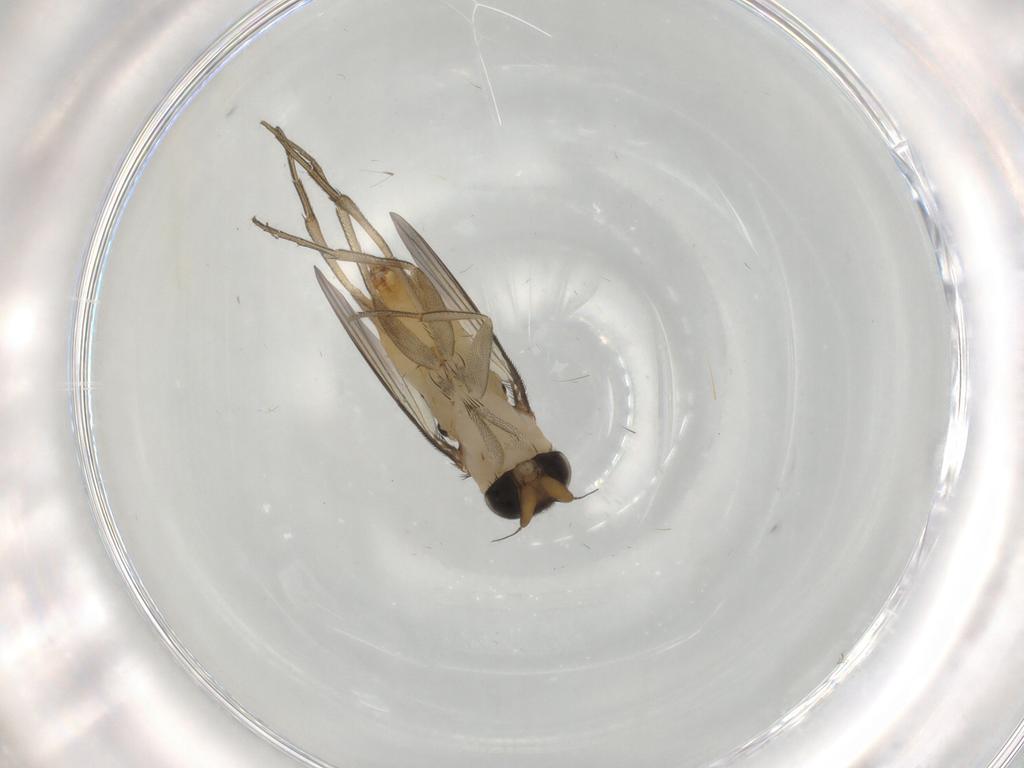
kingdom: Animalia
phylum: Arthropoda
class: Insecta
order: Diptera
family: Phoridae
